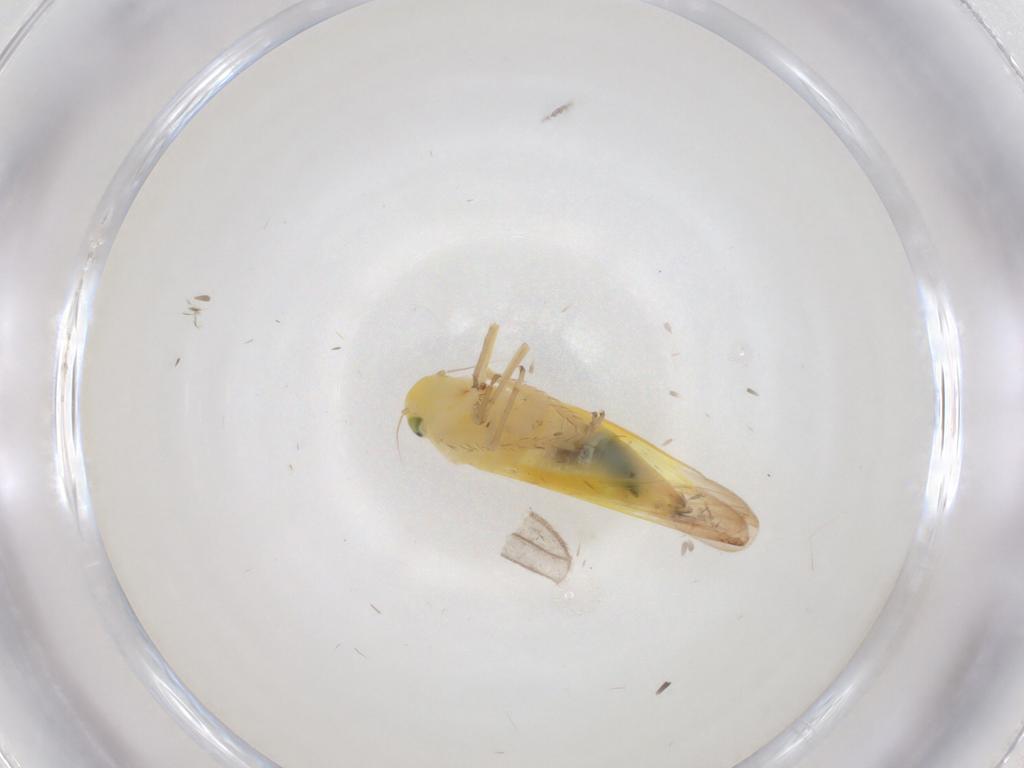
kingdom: Animalia
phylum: Arthropoda
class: Insecta
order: Hemiptera
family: Cicadellidae
